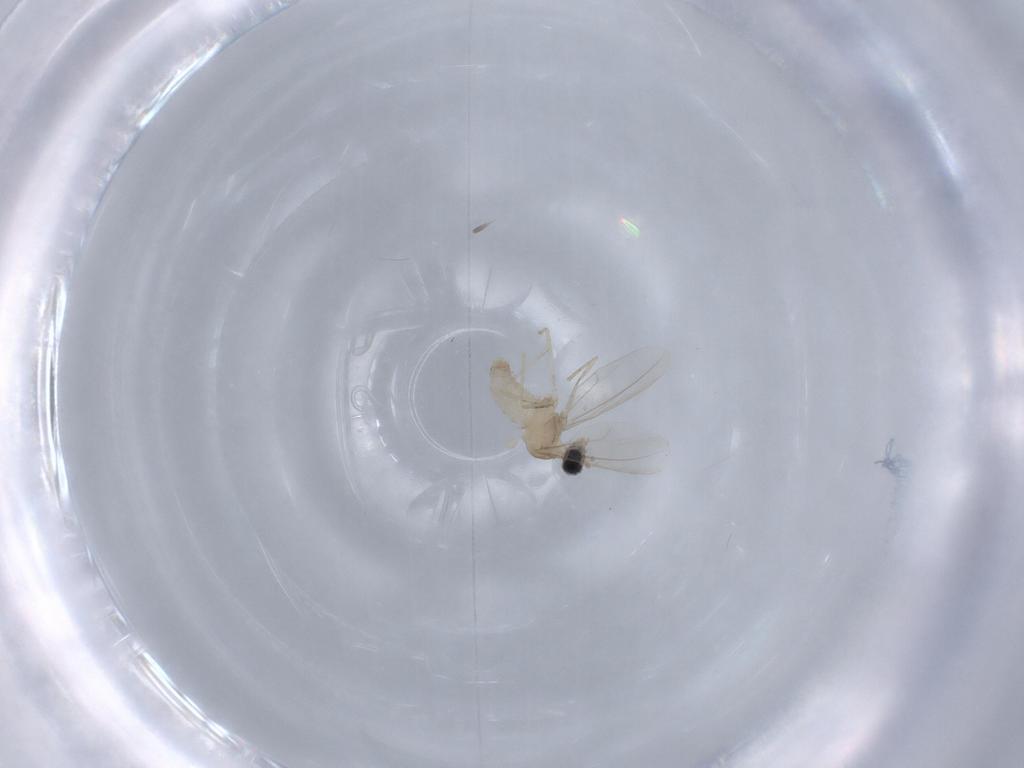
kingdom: Animalia
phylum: Arthropoda
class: Insecta
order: Diptera
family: Cecidomyiidae
